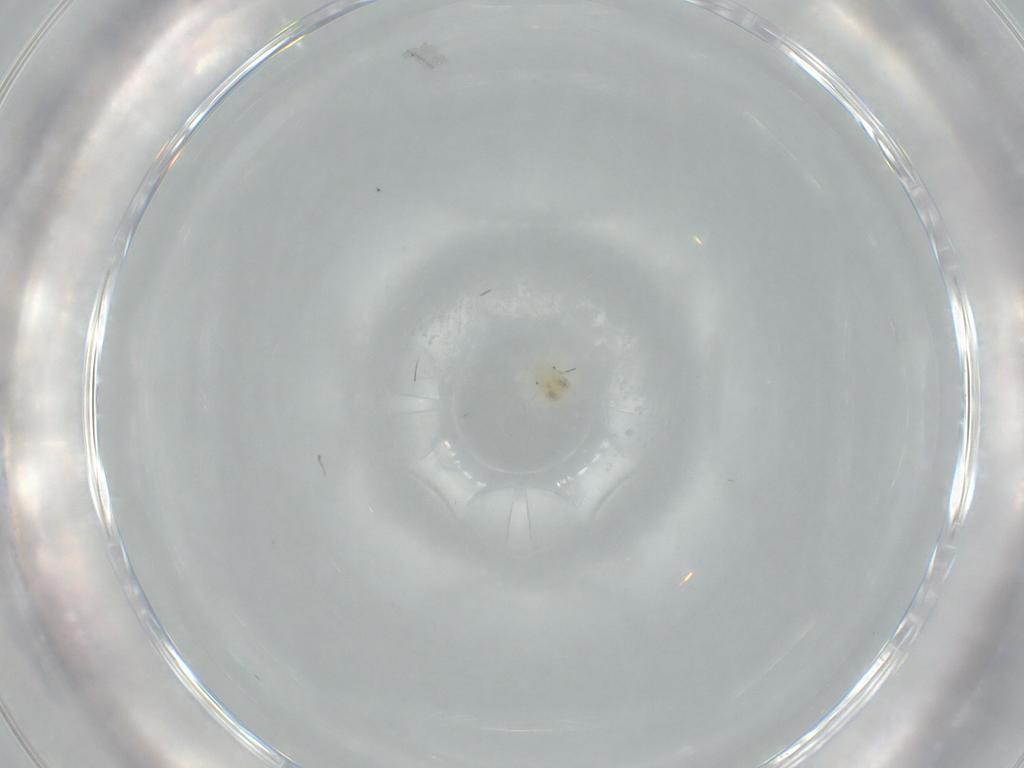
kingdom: Animalia
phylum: Arthropoda
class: Arachnida
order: Trombidiformes
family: Anystidae
